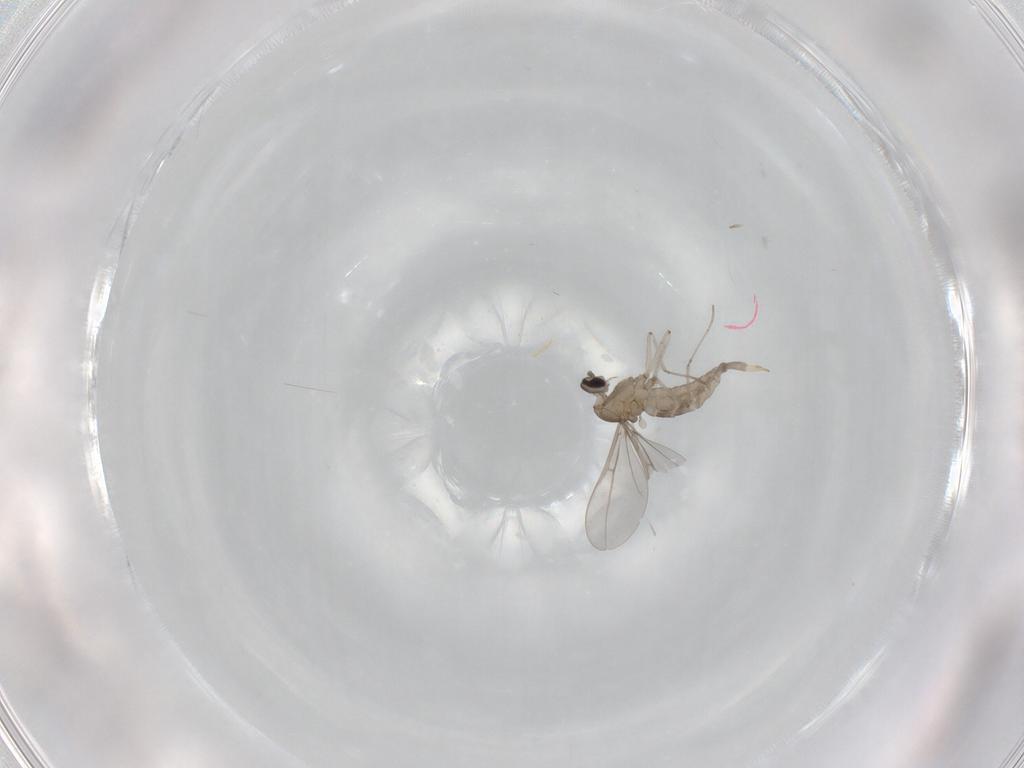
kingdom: Animalia
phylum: Arthropoda
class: Insecta
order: Diptera
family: Cecidomyiidae
